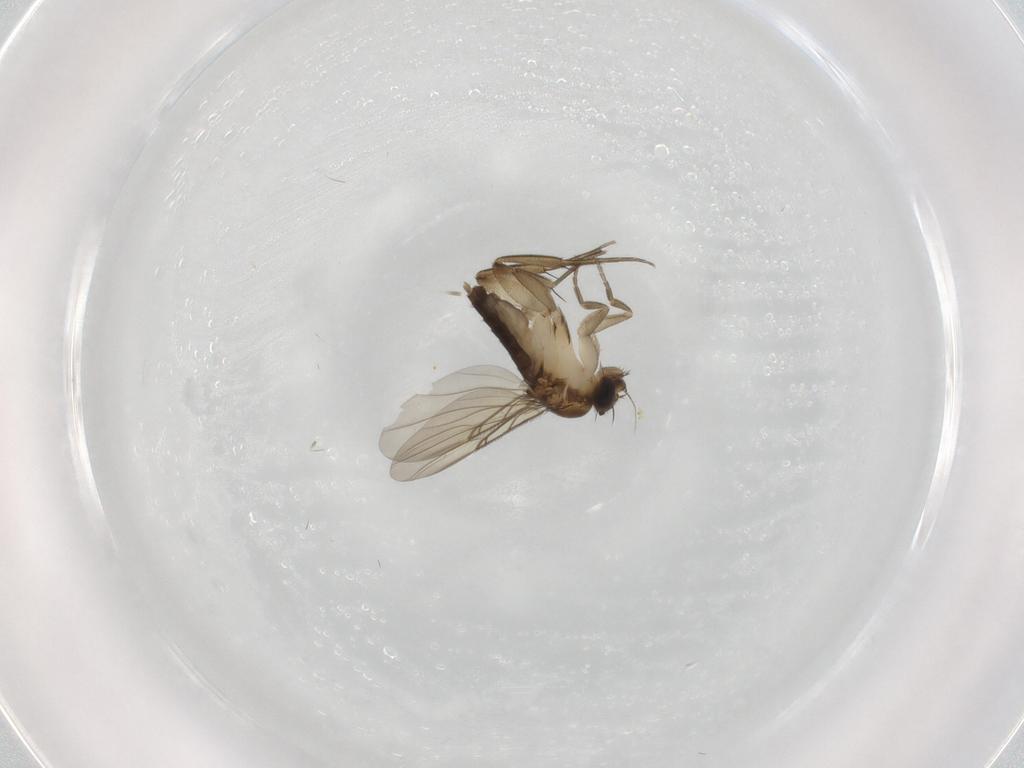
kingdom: Animalia
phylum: Arthropoda
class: Insecta
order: Diptera
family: Phoridae
